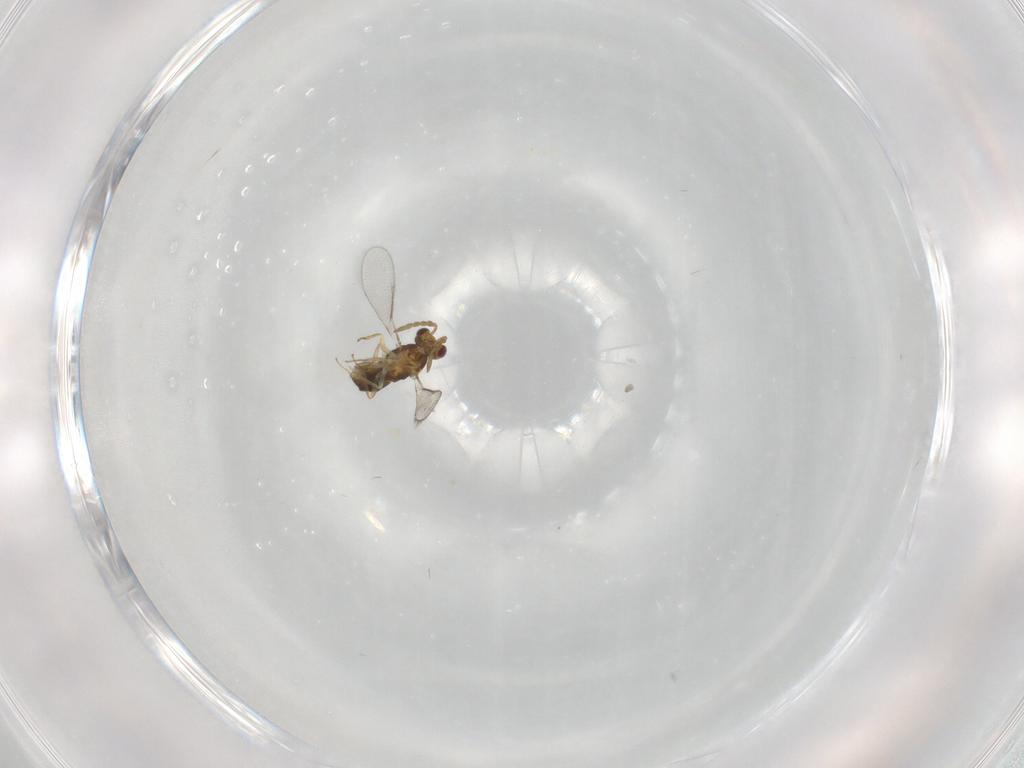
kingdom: Animalia
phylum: Arthropoda
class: Insecta
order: Hymenoptera
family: Aphelinidae
